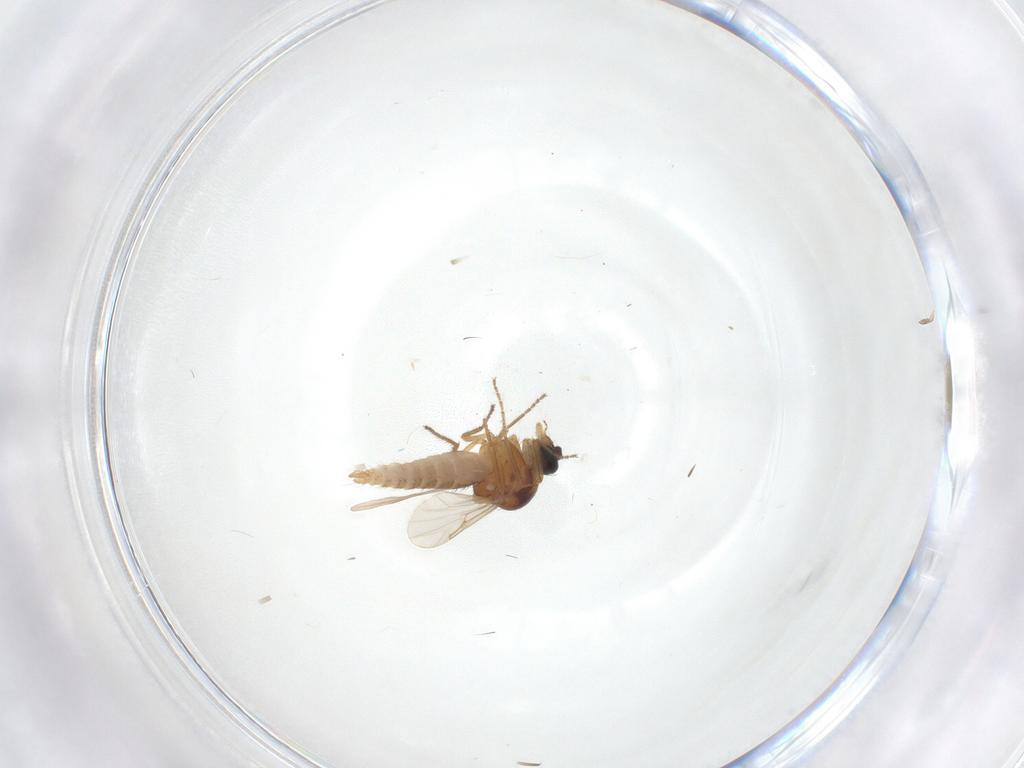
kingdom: Animalia
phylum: Arthropoda
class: Insecta
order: Diptera
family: Ceratopogonidae
